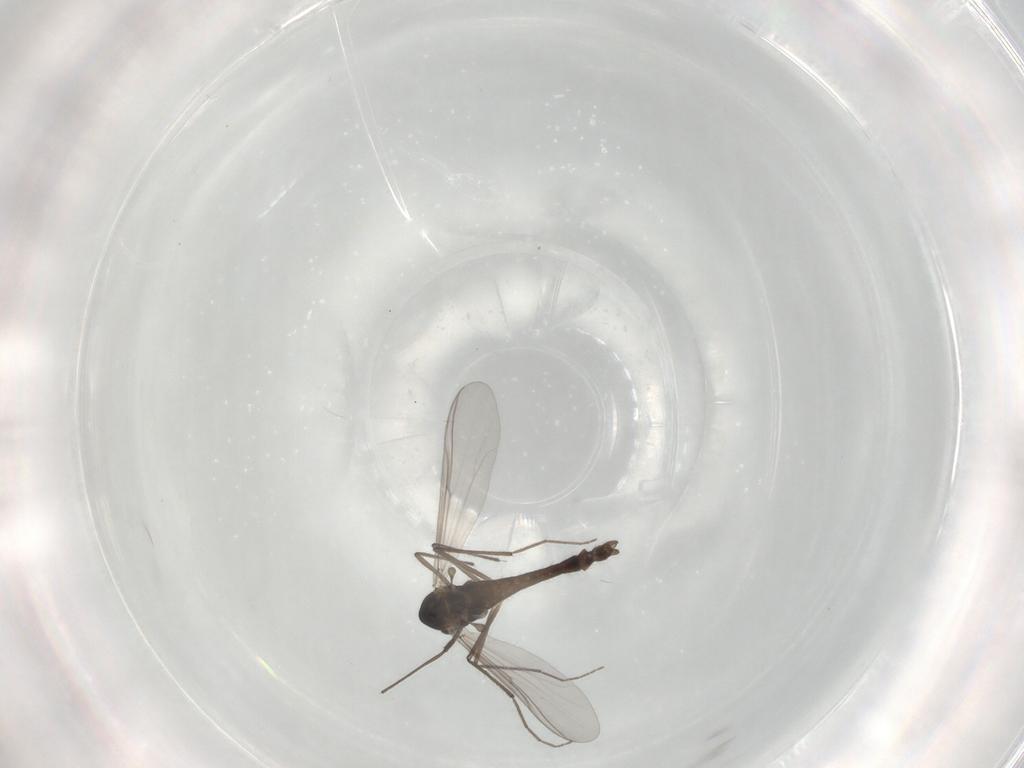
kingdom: Animalia
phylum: Arthropoda
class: Insecta
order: Diptera
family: Chironomidae
